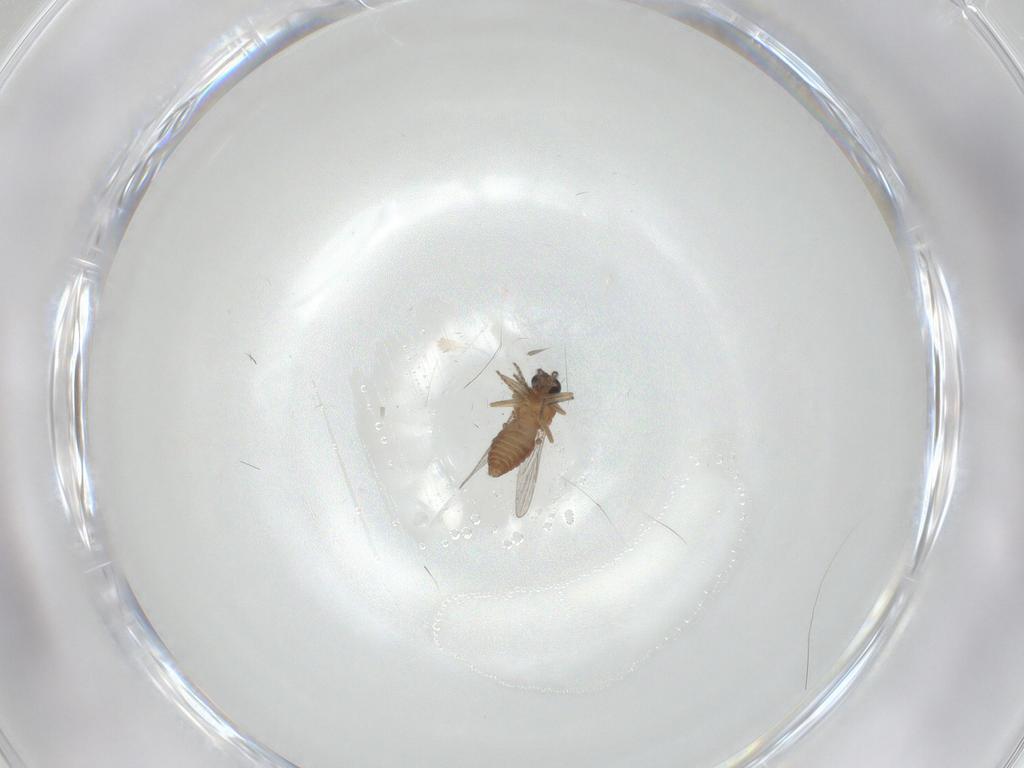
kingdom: Animalia
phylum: Arthropoda
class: Insecta
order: Diptera
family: Ceratopogonidae
